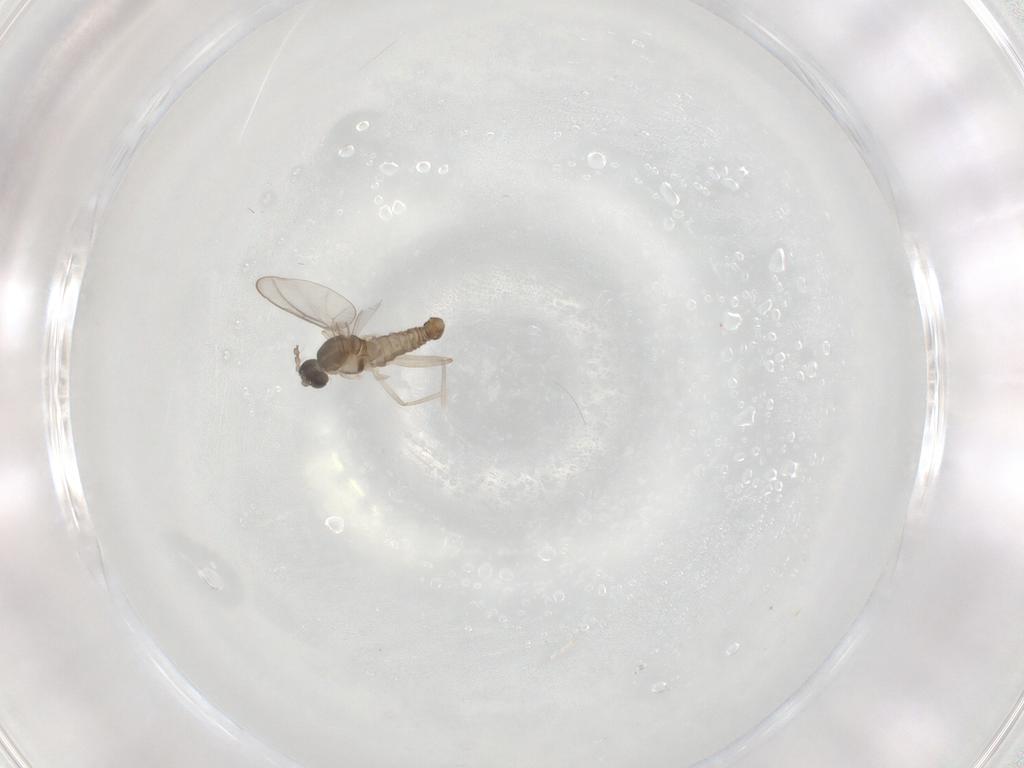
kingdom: Animalia
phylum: Arthropoda
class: Insecta
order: Diptera
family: Cecidomyiidae
